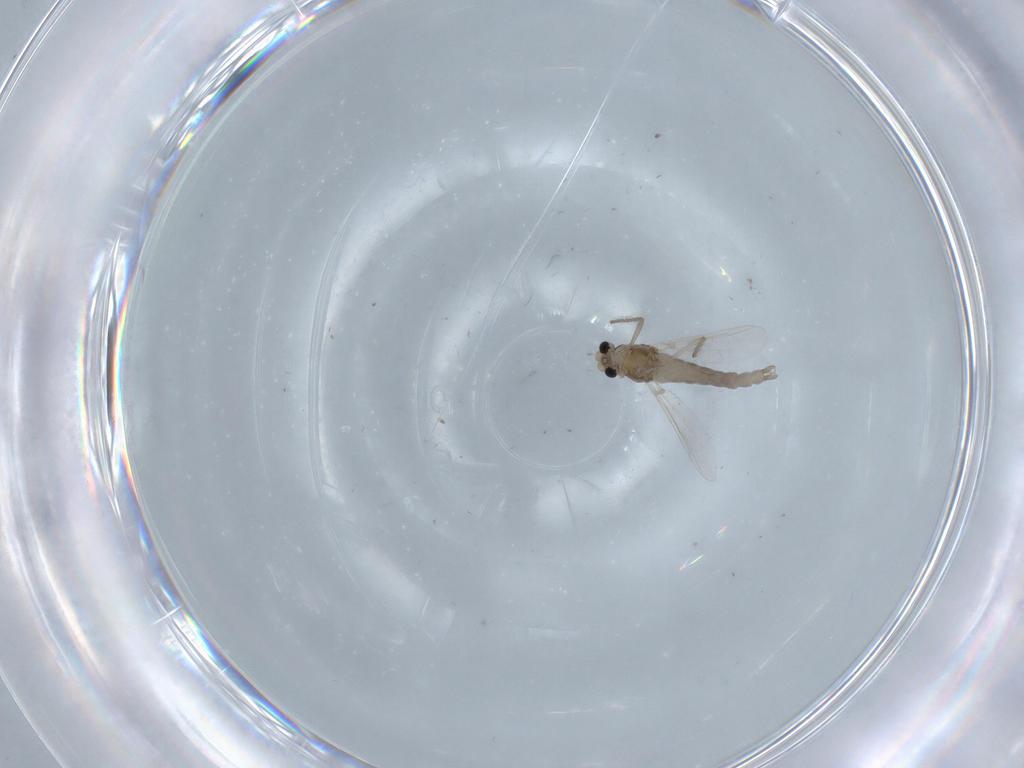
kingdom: Animalia
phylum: Arthropoda
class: Insecta
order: Diptera
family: Chironomidae
